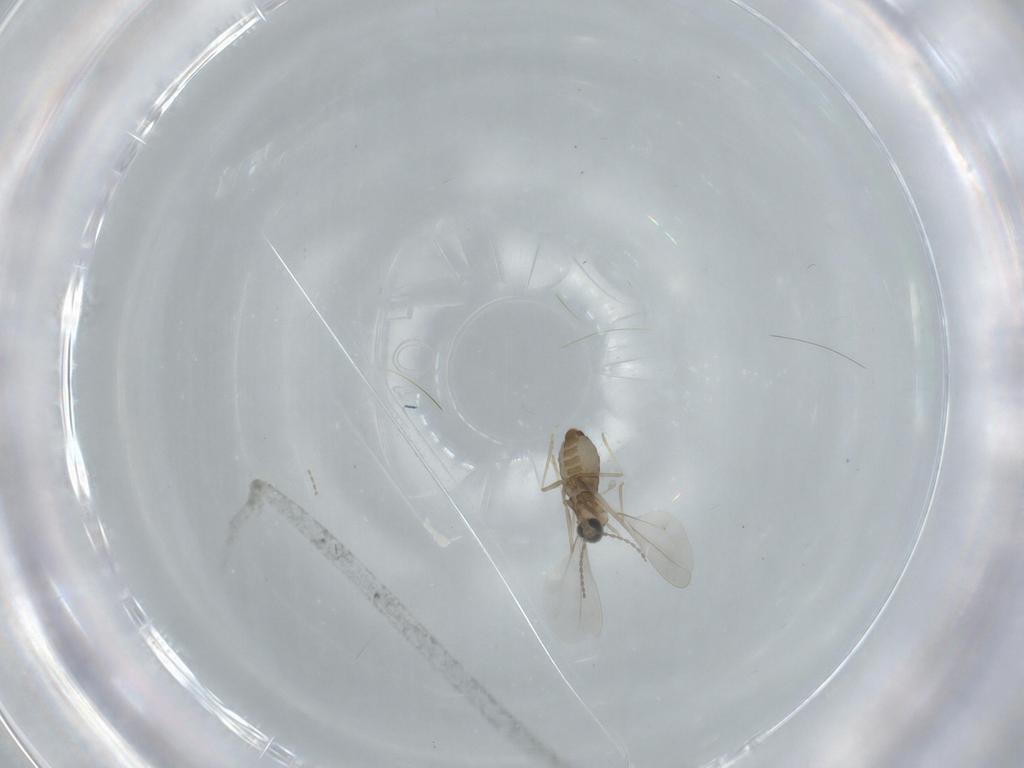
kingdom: Animalia
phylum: Arthropoda
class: Insecta
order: Diptera
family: Cecidomyiidae
